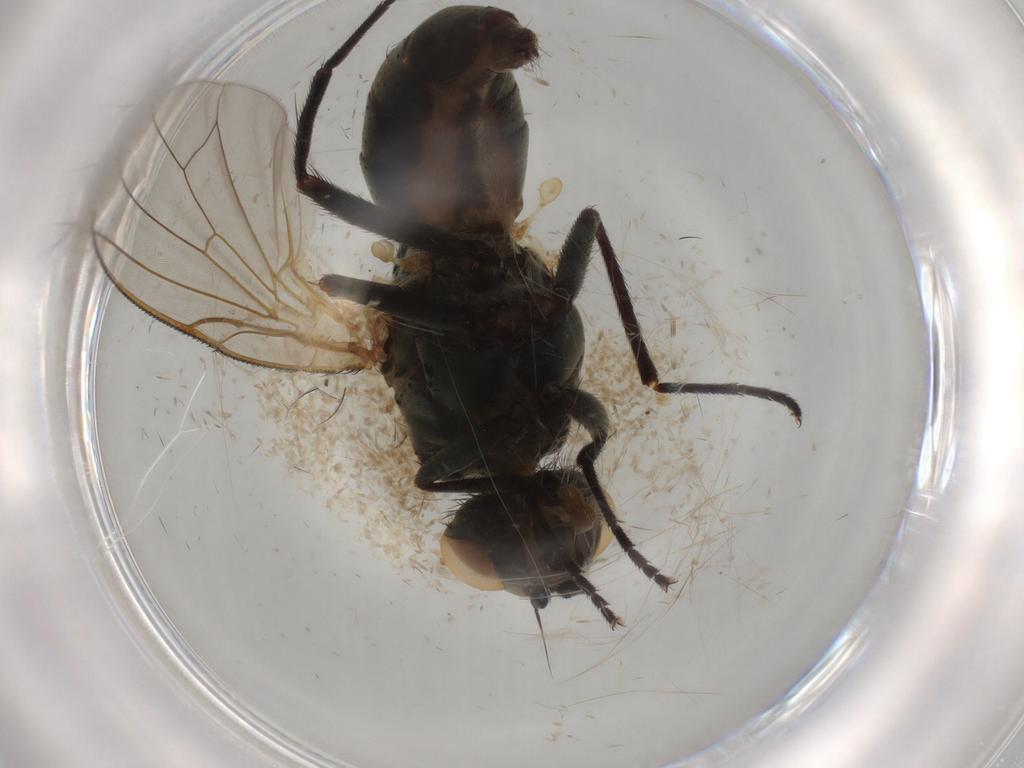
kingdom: Animalia
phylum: Arthropoda
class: Insecta
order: Diptera
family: Anthomyiidae
